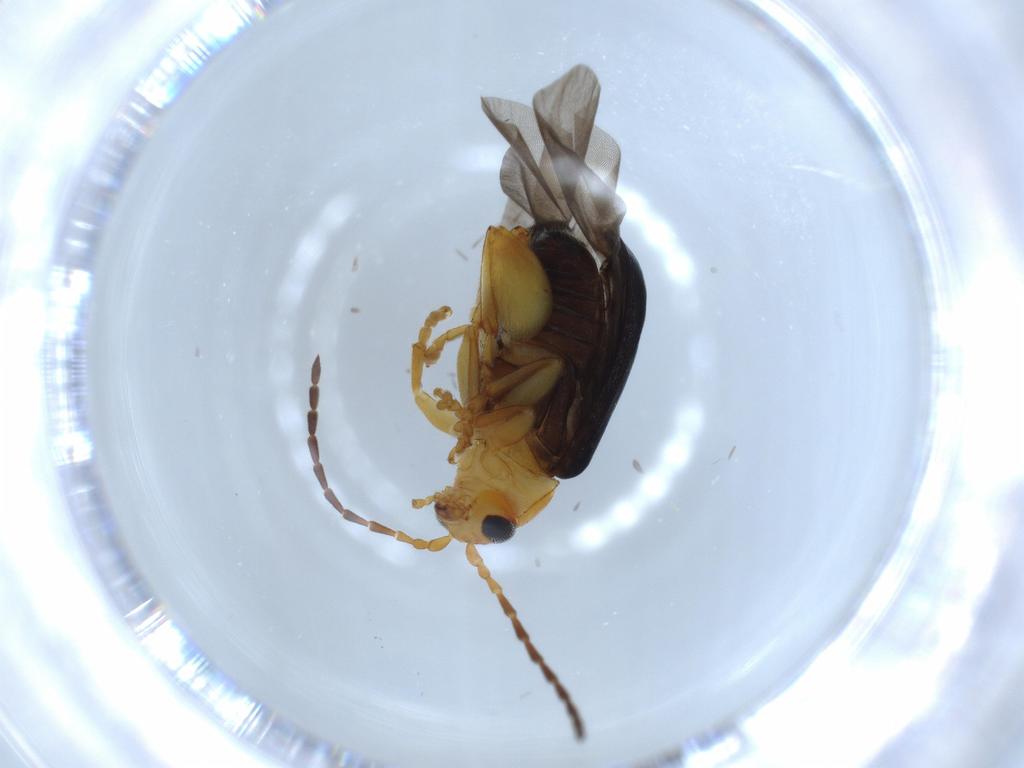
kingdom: Animalia
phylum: Arthropoda
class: Insecta
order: Coleoptera
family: Chrysomelidae
